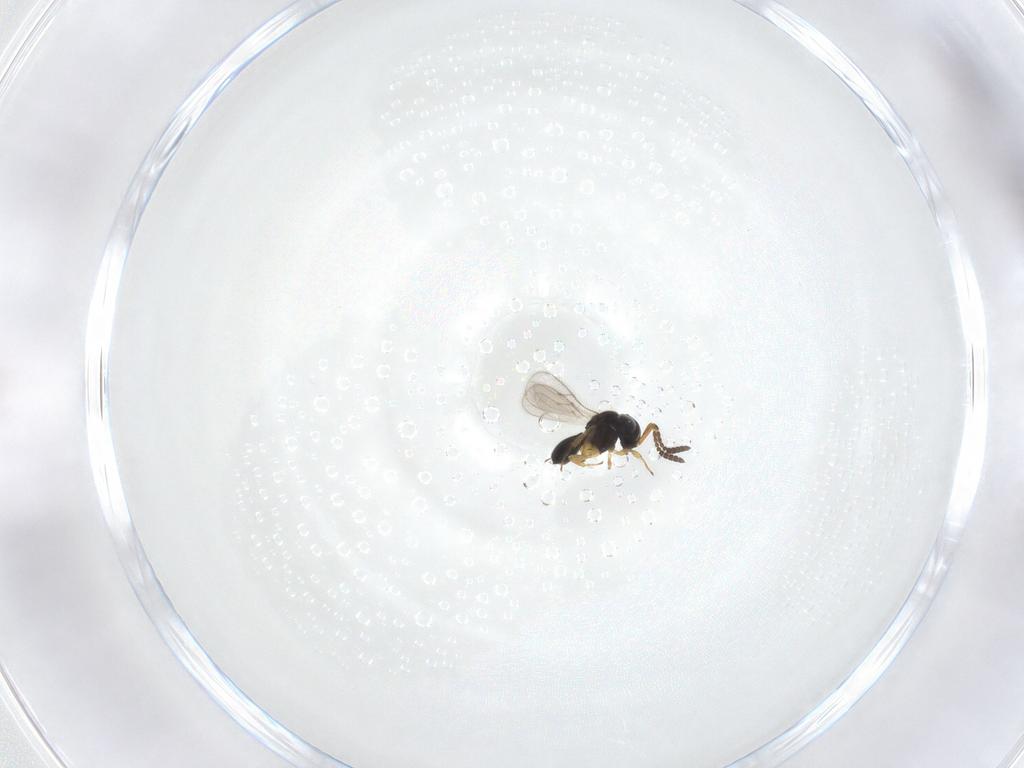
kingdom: Animalia
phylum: Arthropoda
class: Insecta
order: Hymenoptera
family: Scelionidae
